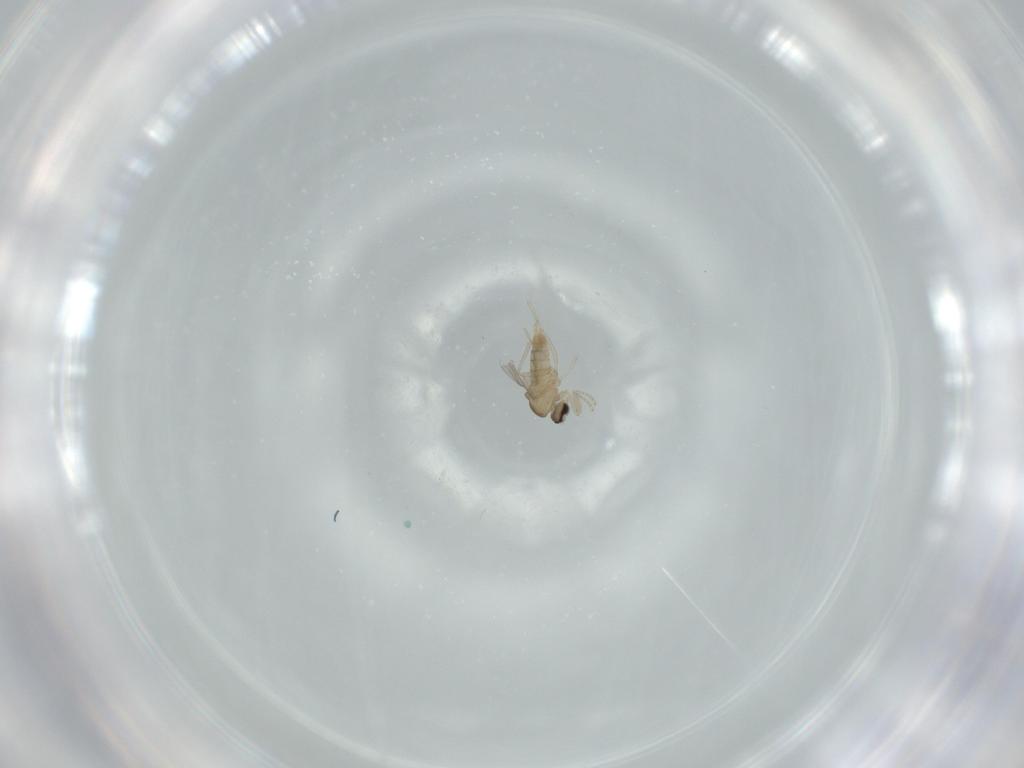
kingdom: Animalia
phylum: Arthropoda
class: Insecta
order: Diptera
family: Cecidomyiidae
